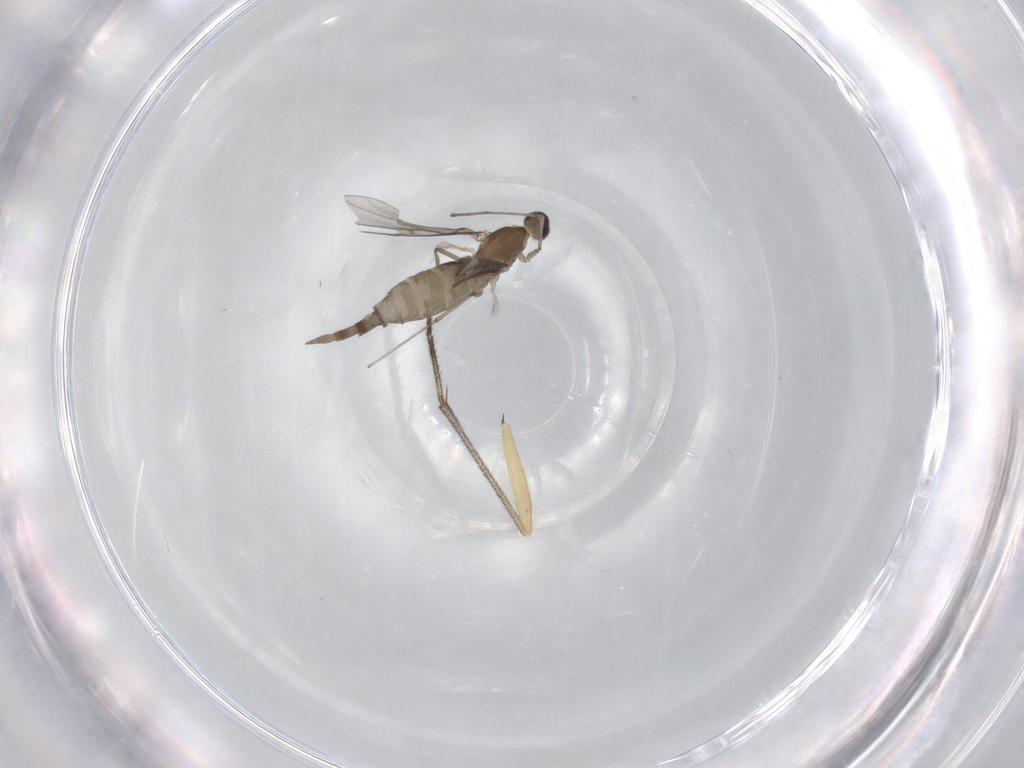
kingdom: Animalia
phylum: Arthropoda
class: Insecta
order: Diptera
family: Cecidomyiidae
